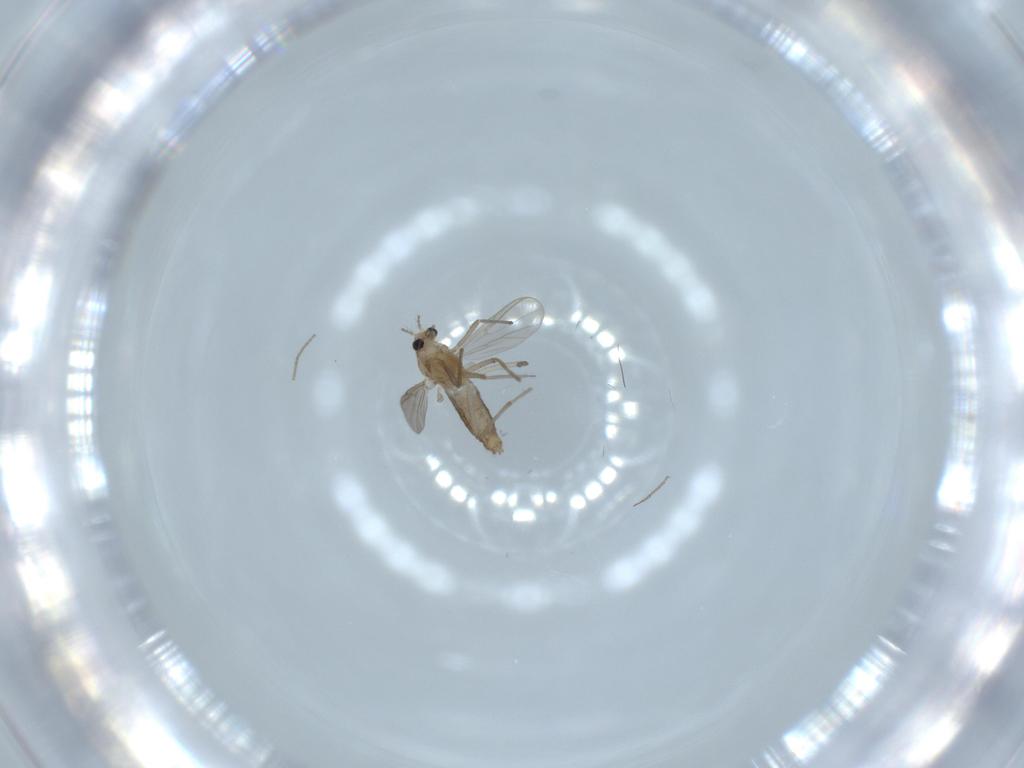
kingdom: Animalia
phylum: Arthropoda
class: Insecta
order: Diptera
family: Chironomidae
